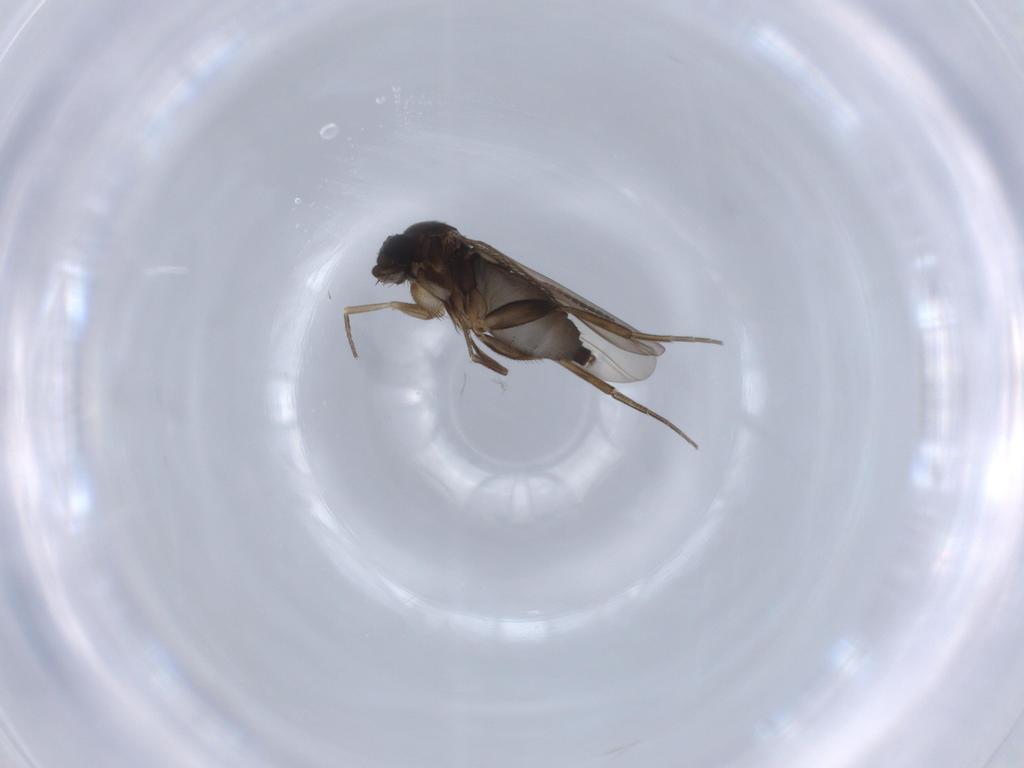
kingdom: Animalia
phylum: Arthropoda
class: Insecta
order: Diptera
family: Phoridae
